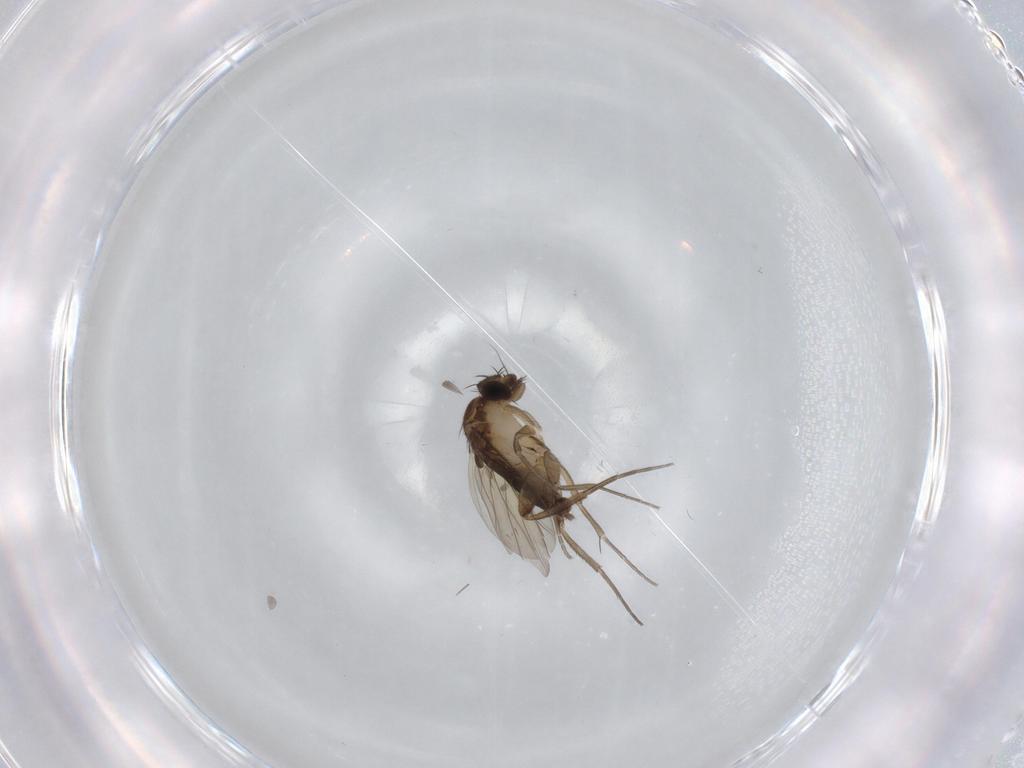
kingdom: Animalia
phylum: Arthropoda
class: Insecta
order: Diptera
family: Phoridae
